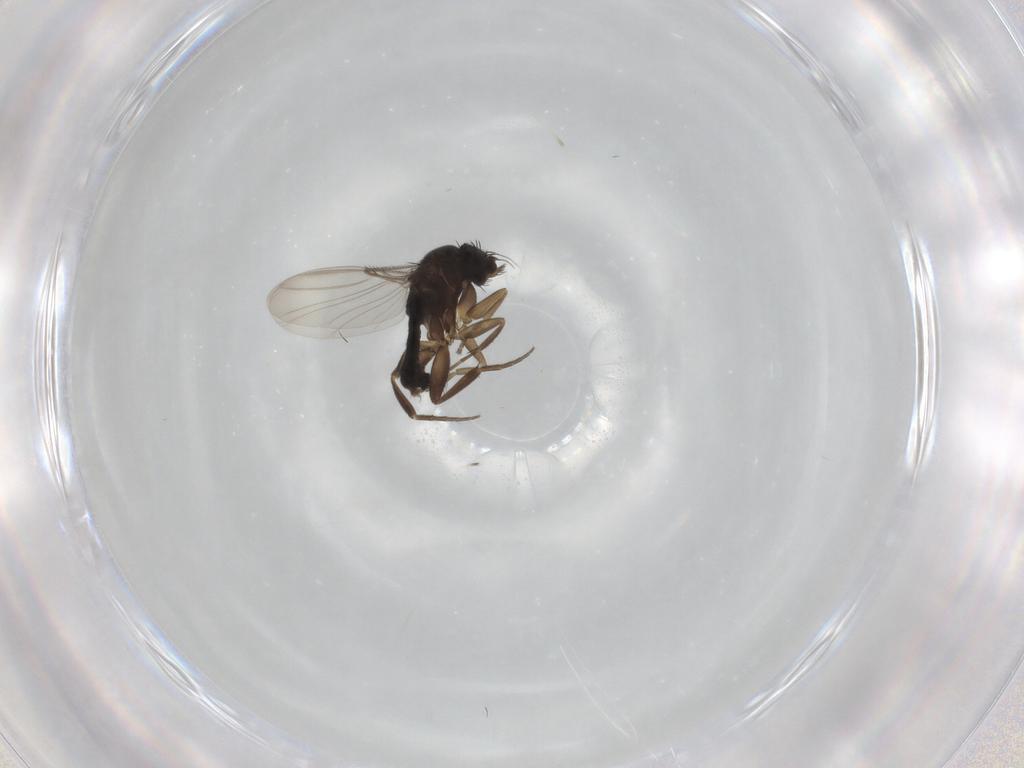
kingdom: Animalia
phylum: Arthropoda
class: Insecta
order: Diptera
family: Phoridae
